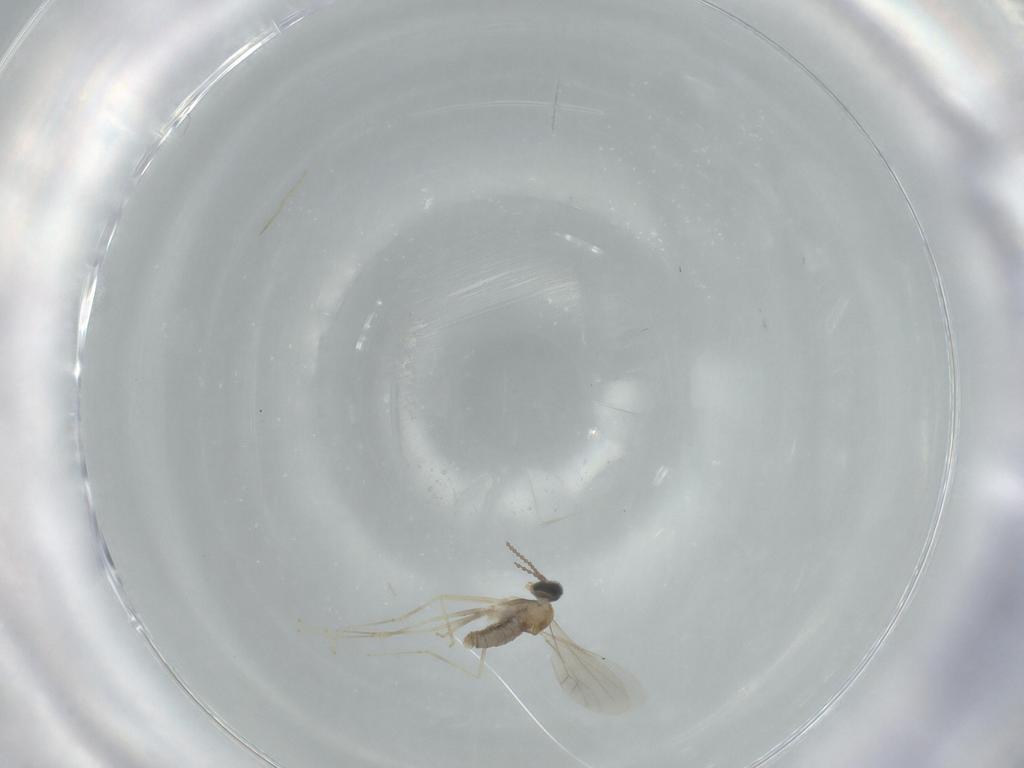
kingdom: Animalia
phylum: Arthropoda
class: Insecta
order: Diptera
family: Cecidomyiidae
